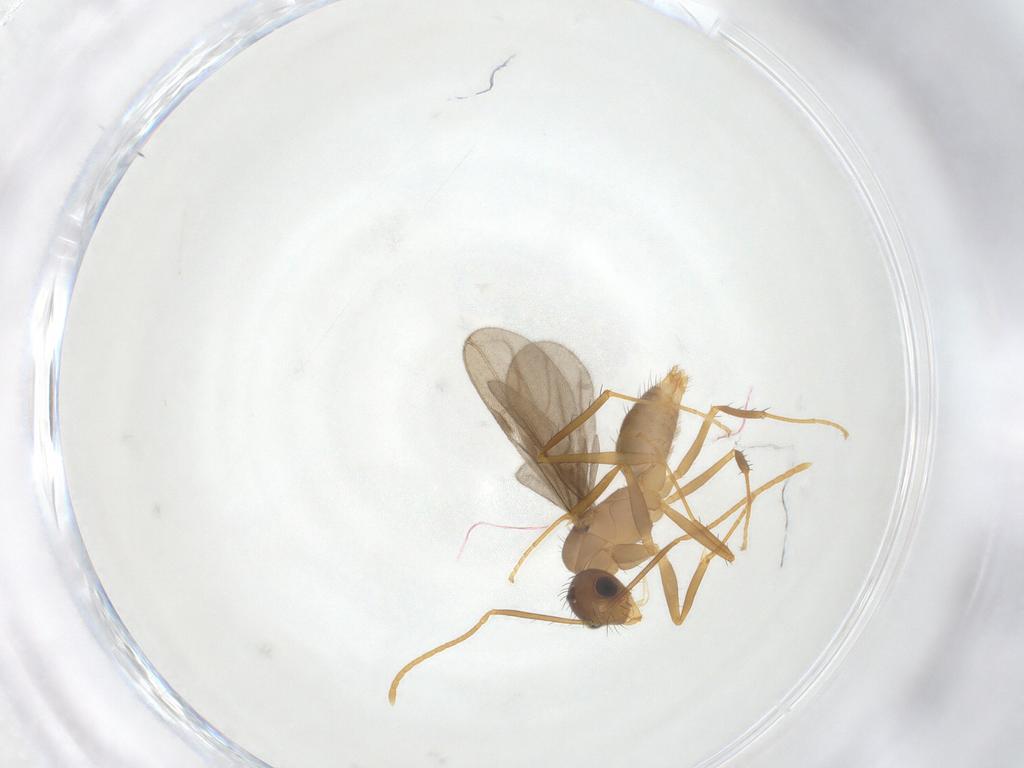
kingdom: Animalia
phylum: Arthropoda
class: Insecta
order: Hymenoptera
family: Formicidae
